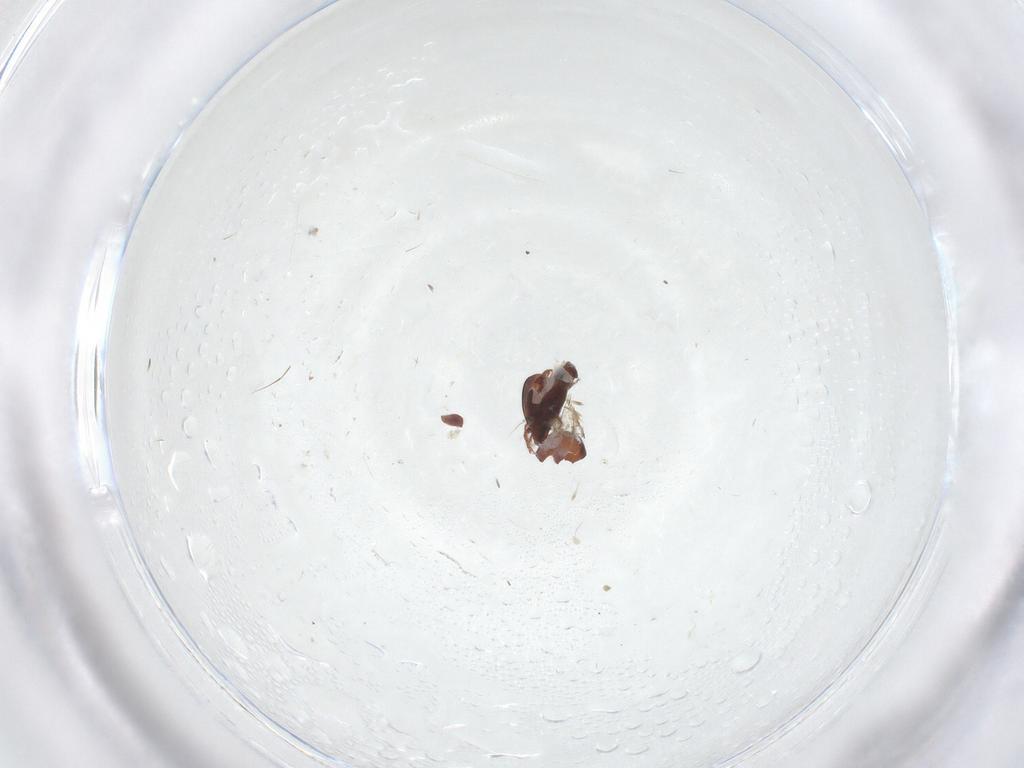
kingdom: Animalia
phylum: Arthropoda
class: Arachnida
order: Sarcoptiformes
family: Ceratozetidae
